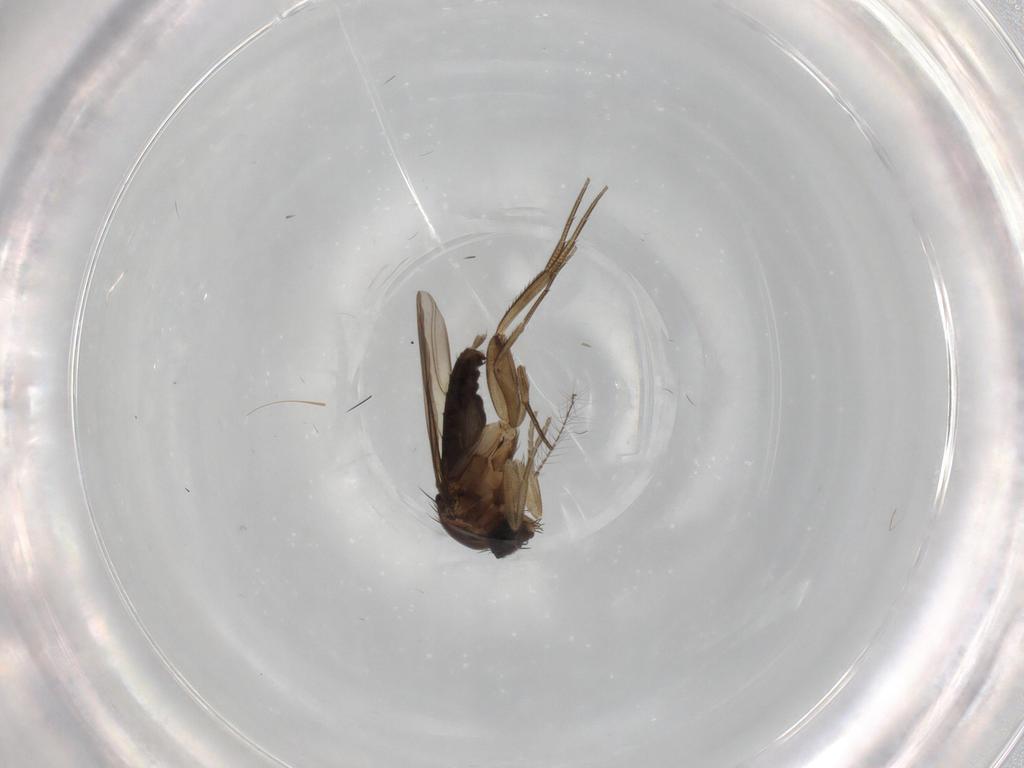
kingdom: Animalia
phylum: Arthropoda
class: Insecta
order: Diptera
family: Ceratopogonidae
